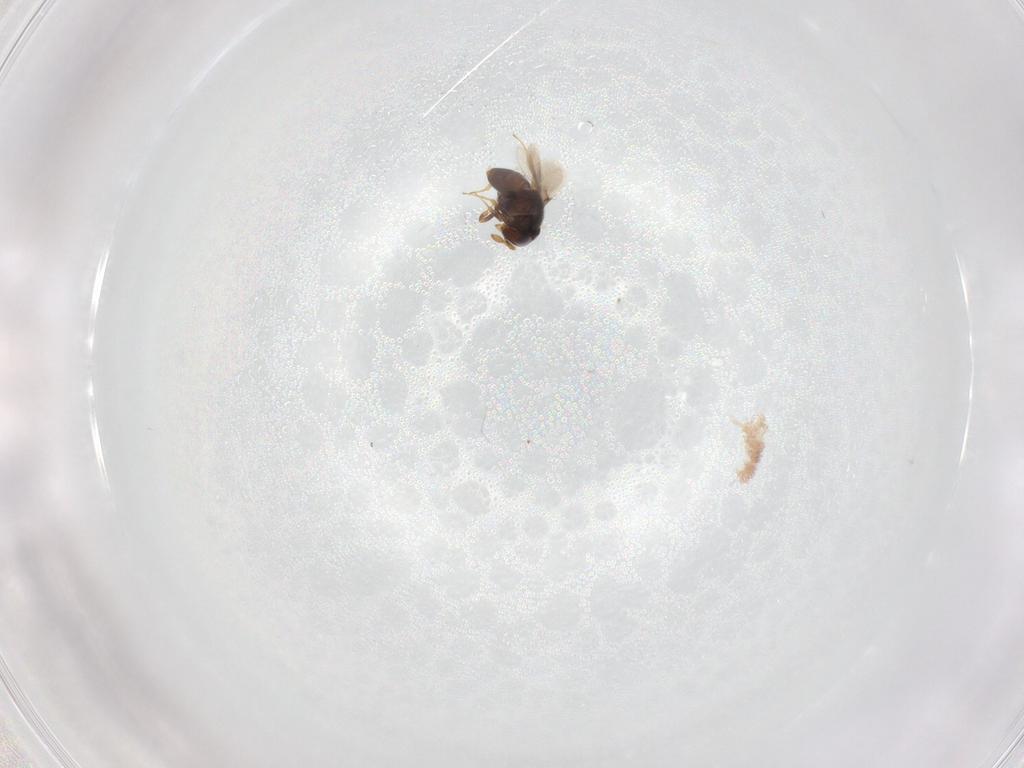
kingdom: Animalia
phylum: Arthropoda
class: Insecta
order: Hymenoptera
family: Scelionidae
